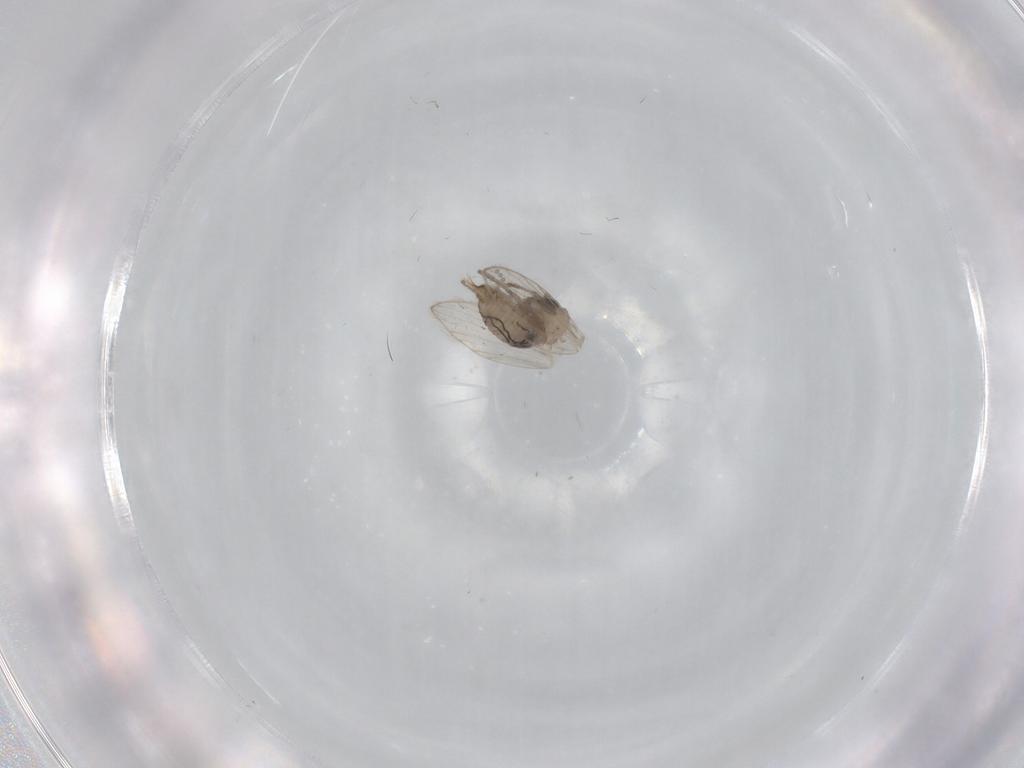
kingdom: Animalia
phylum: Arthropoda
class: Insecta
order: Diptera
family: Psychodidae
